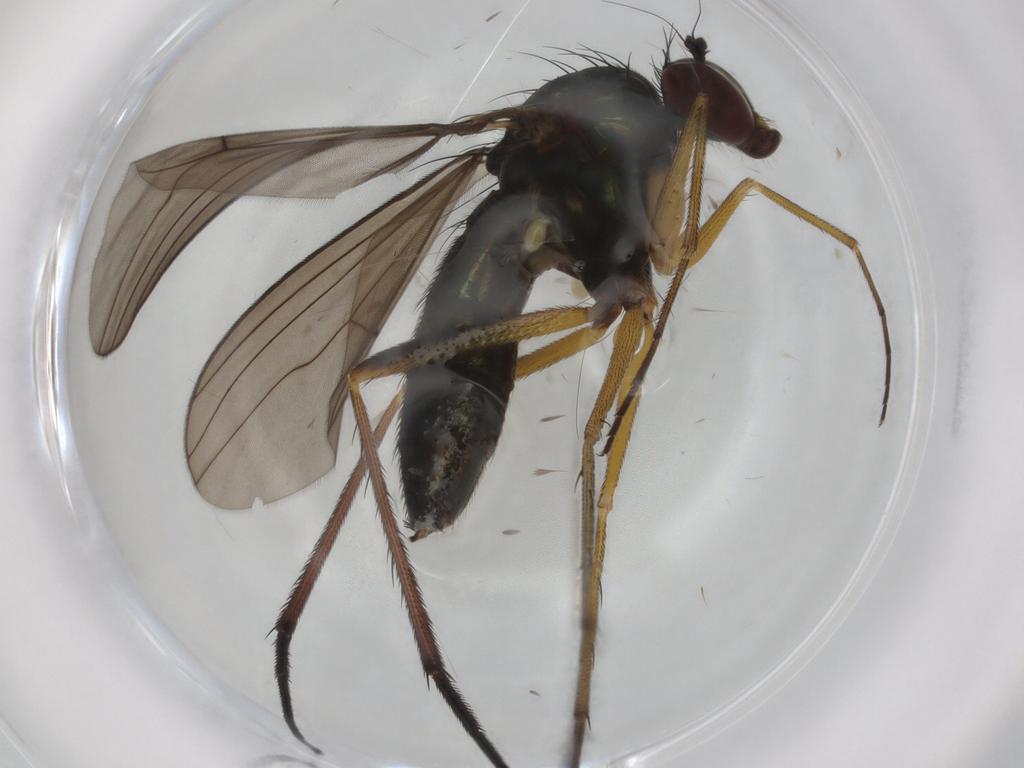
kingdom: Animalia
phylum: Arthropoda
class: Insecta
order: Diptera
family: Dolichopodidae
